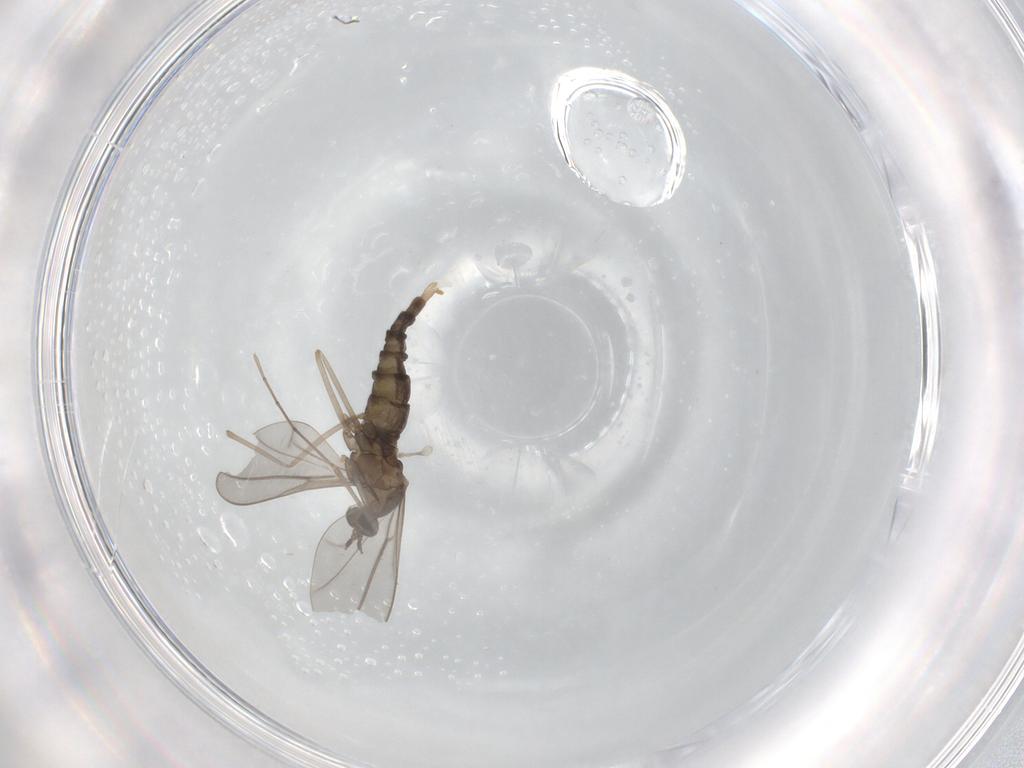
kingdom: Animalia
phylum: Arthropoda
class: Insecta
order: Diptera
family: Cecidomyiidae
